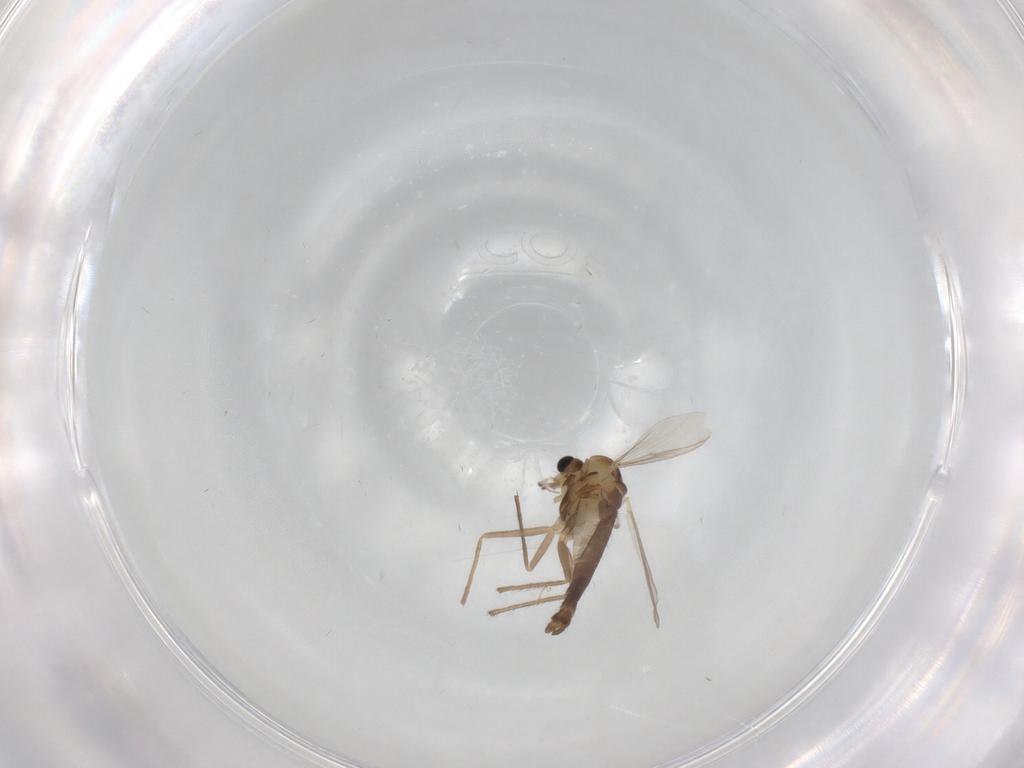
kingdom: Animalia
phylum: Arthropoda
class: Insecta
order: Diptera
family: Chironomidae
